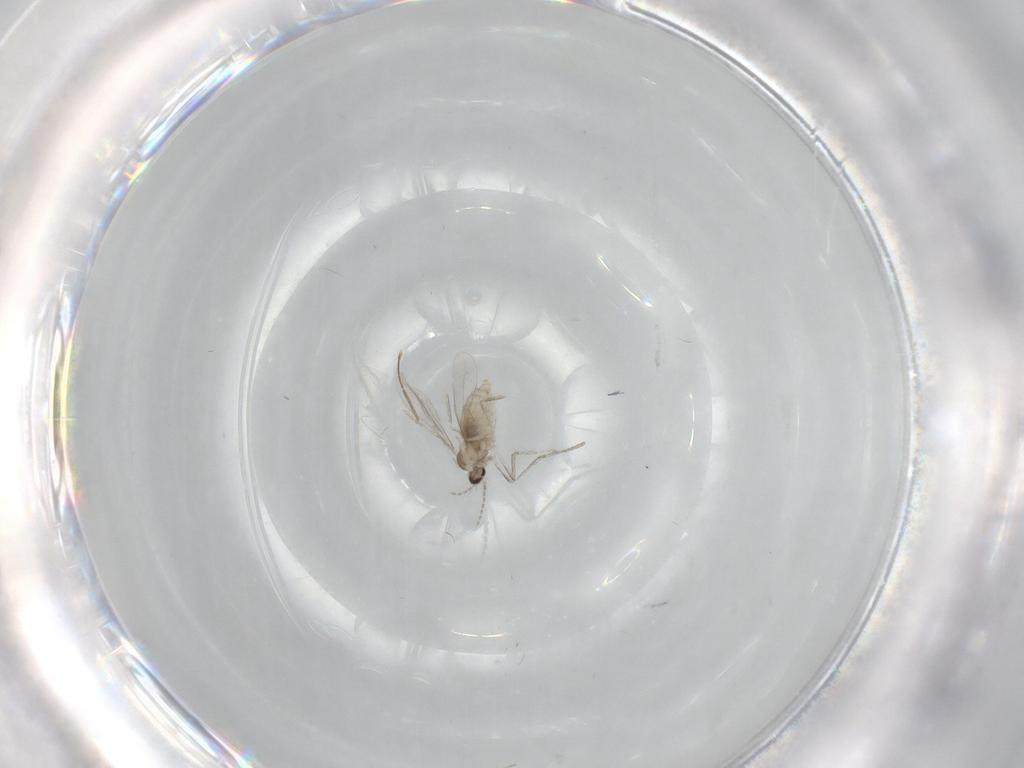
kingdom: Animalia
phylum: Arthropoda
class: Insecta
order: Diptera
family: Cecidomyiidae
